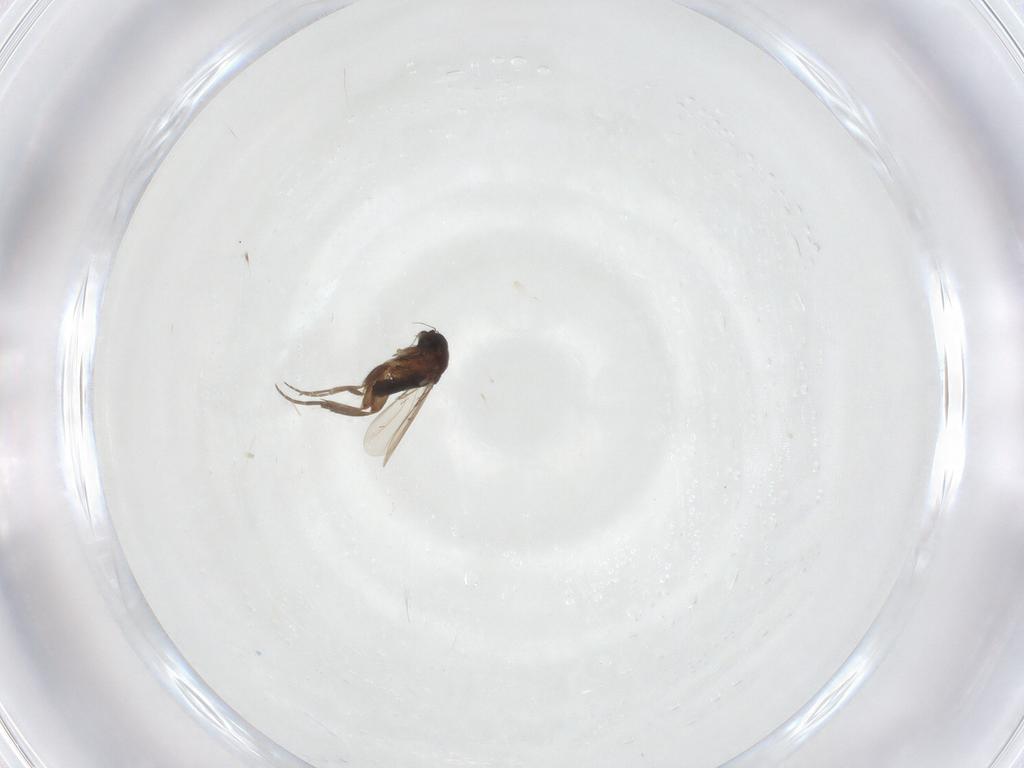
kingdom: Animalia
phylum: Arthropoda
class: Insecta
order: Diptera
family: Phoridae
